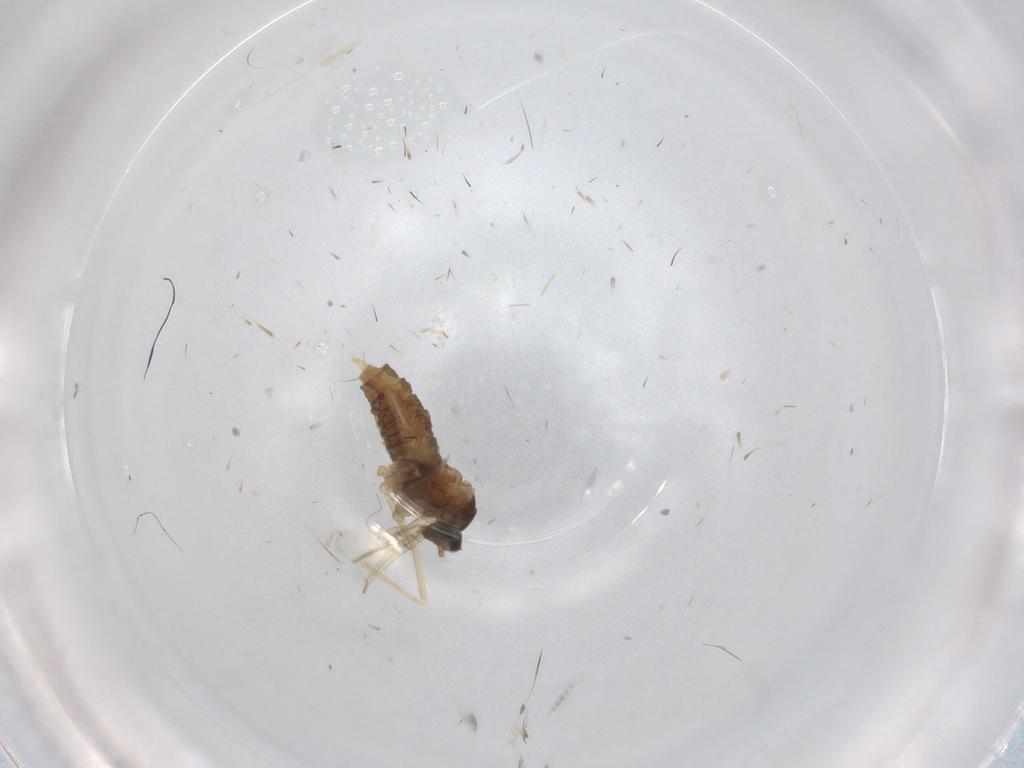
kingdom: Animalia
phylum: Arthropoda
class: Insecta
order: Diptera
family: Cecidomyiidae
